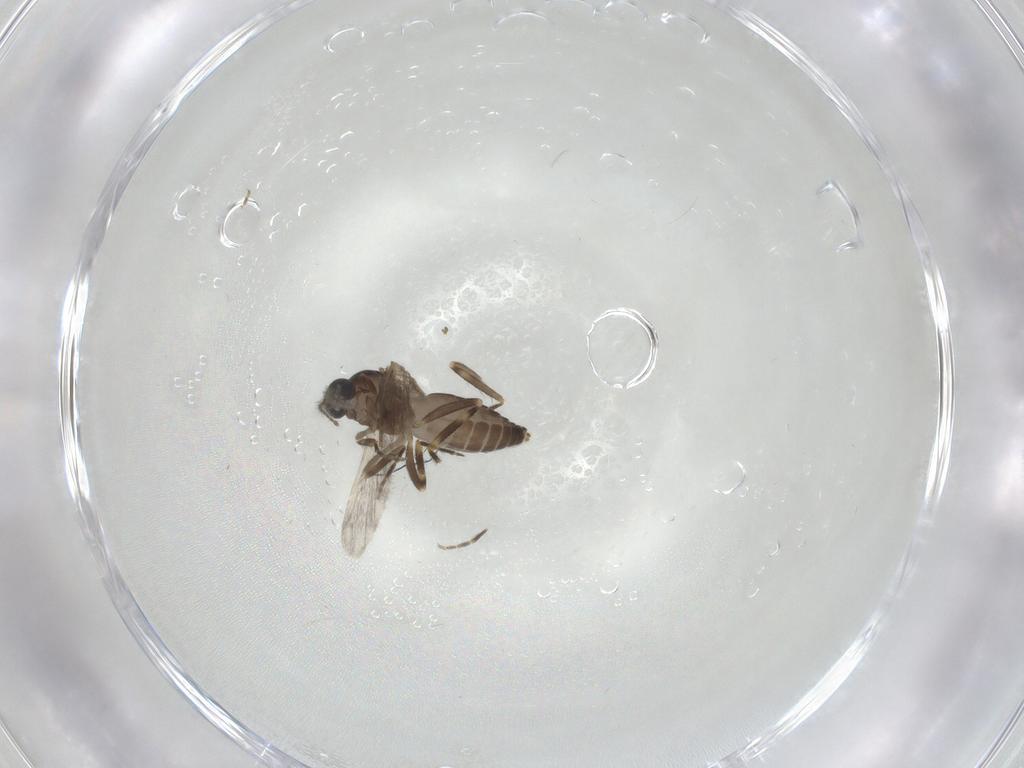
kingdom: Animalia
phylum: Arthropoda
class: Insecta
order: Diptera
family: Ceratopogonidae
